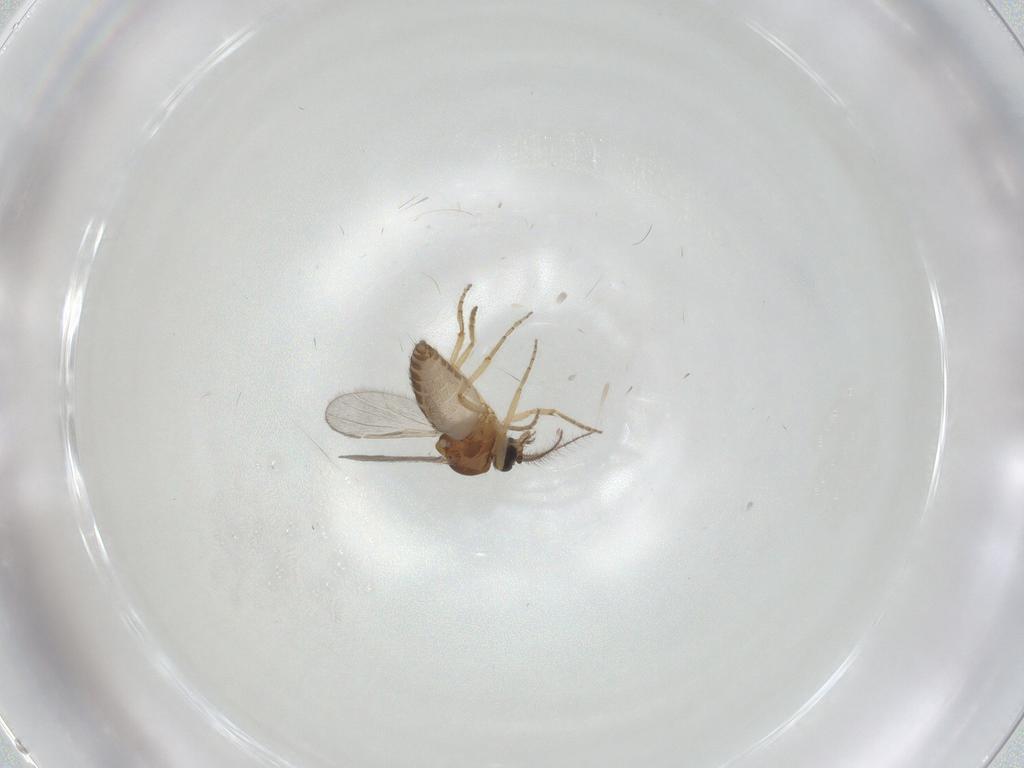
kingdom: Animalia
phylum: Arthropoda
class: Insecta
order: Diptera
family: Ceratopogonidae
